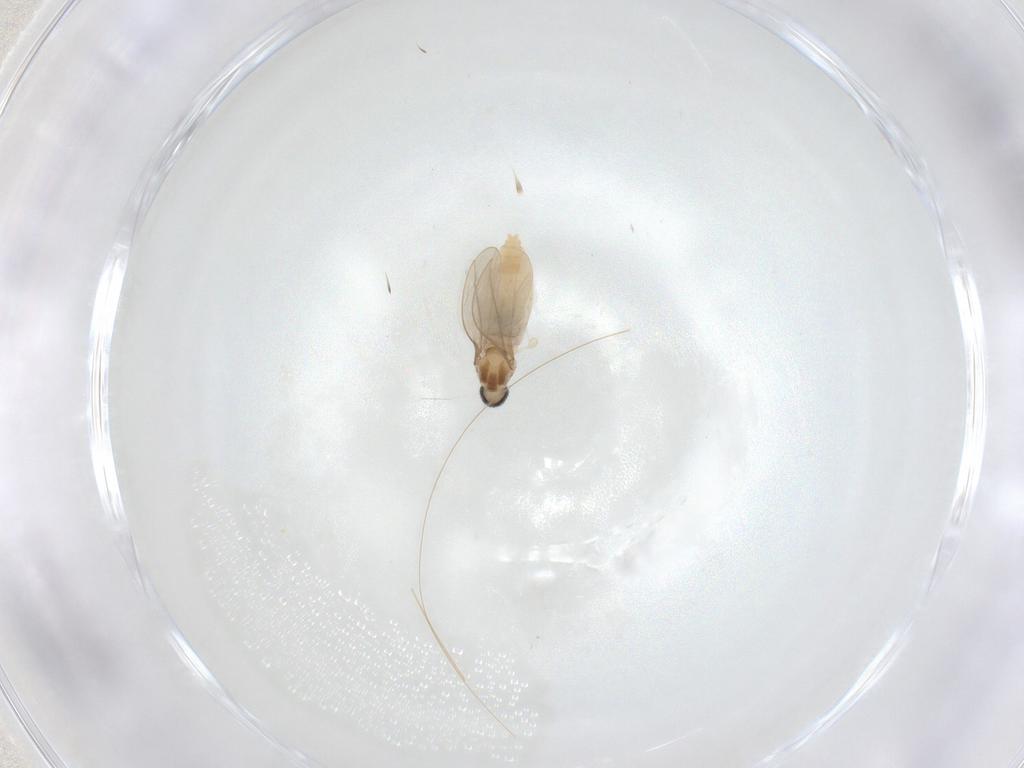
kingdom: Animalia
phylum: Arthropoda
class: Insecta
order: Diptera
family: Cecidomyiidae
